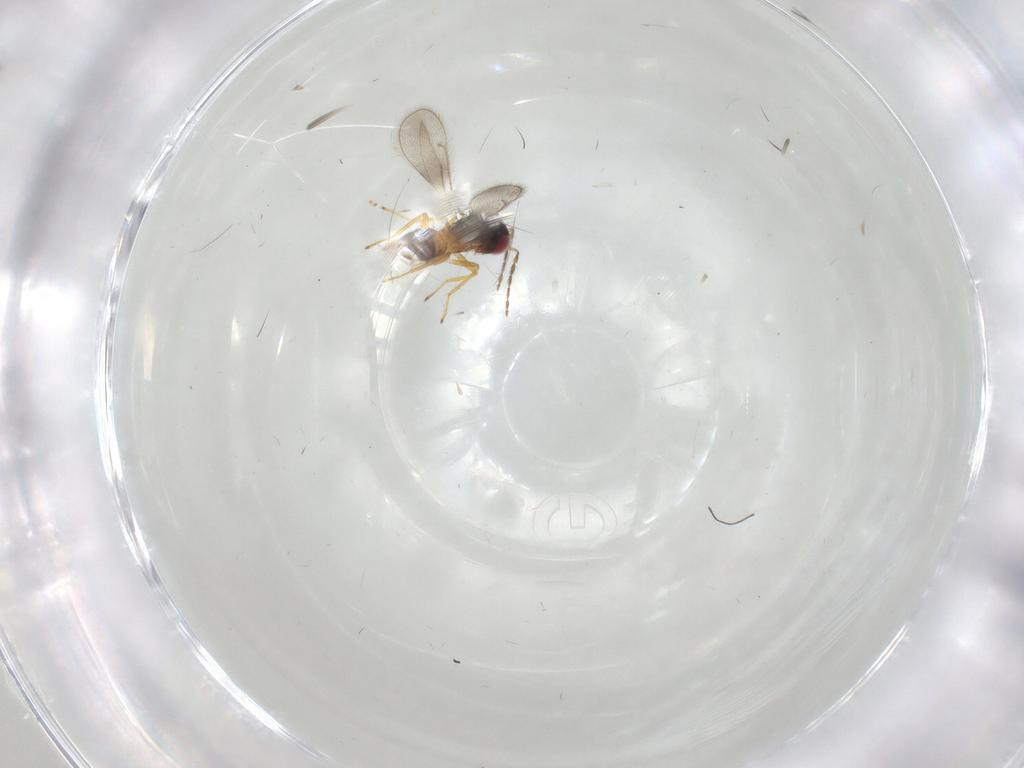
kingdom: Animalia
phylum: Arthropoda
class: Insecta
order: Hymenoptera
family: Eulophidae
